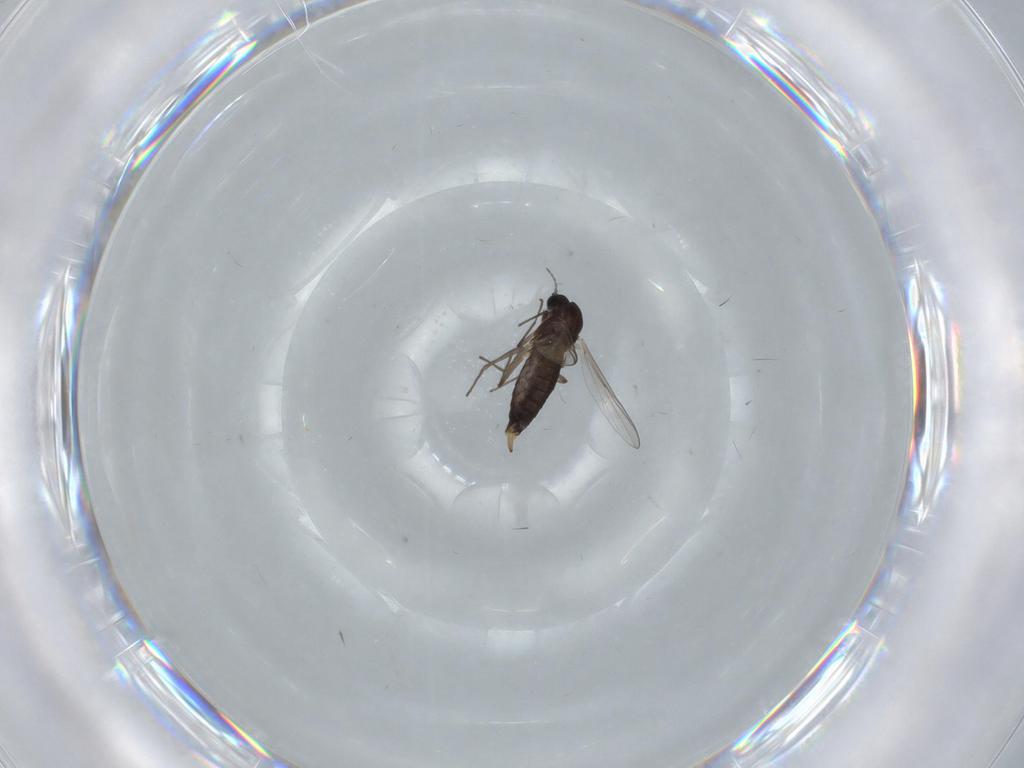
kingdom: Animalia
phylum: Arthropoda
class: Insecta
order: Diptera
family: Chironomidae
